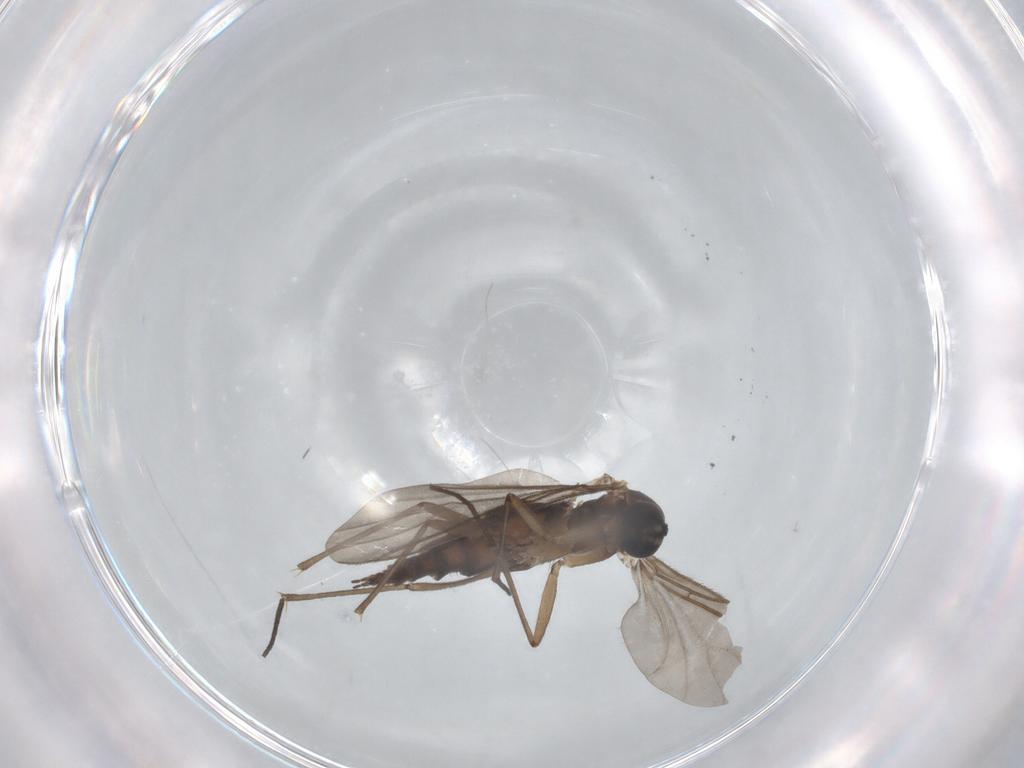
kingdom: Animalia
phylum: Arthropoda
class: Insecta
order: Diptera
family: Sciaridae
